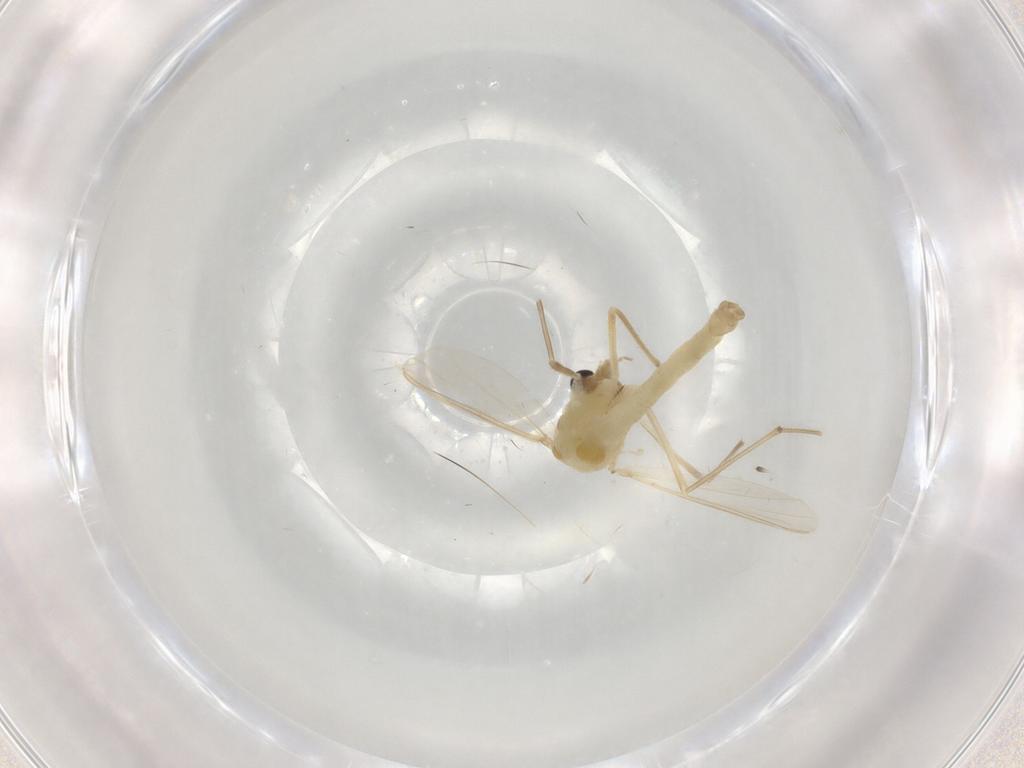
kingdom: Animalia
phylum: Arthropoda
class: Insecta
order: Diptera
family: Chironomidae
